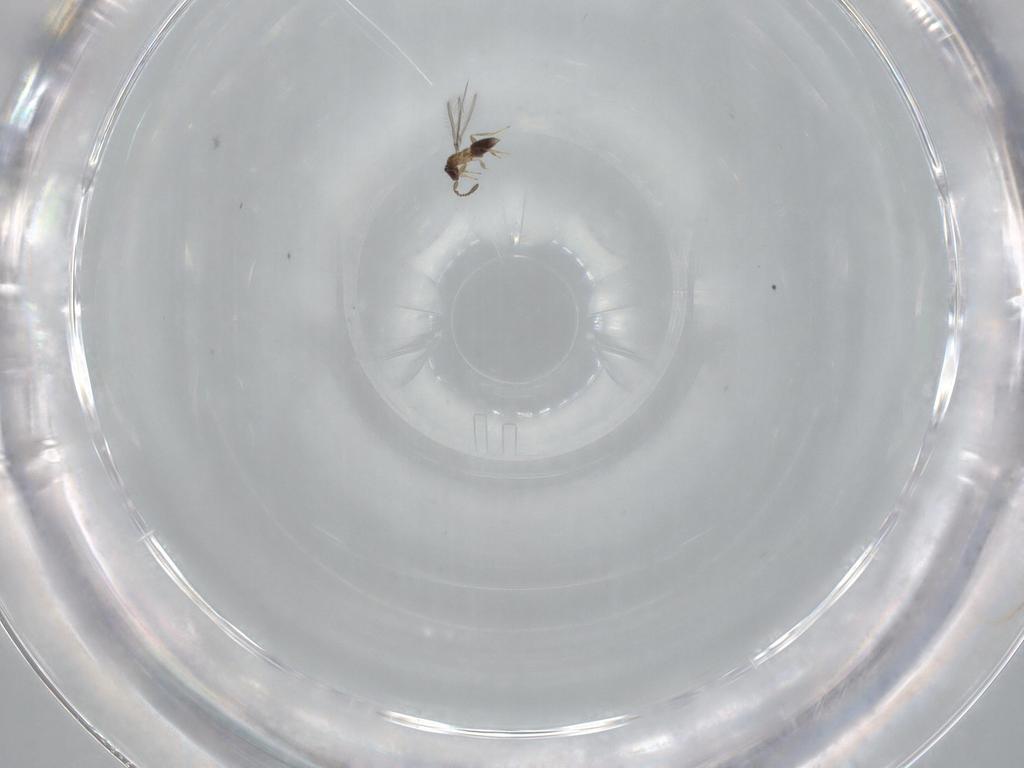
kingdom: Animalia
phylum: Arthropoda
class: Insecta
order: Hymenoptera
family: Mymaridae
